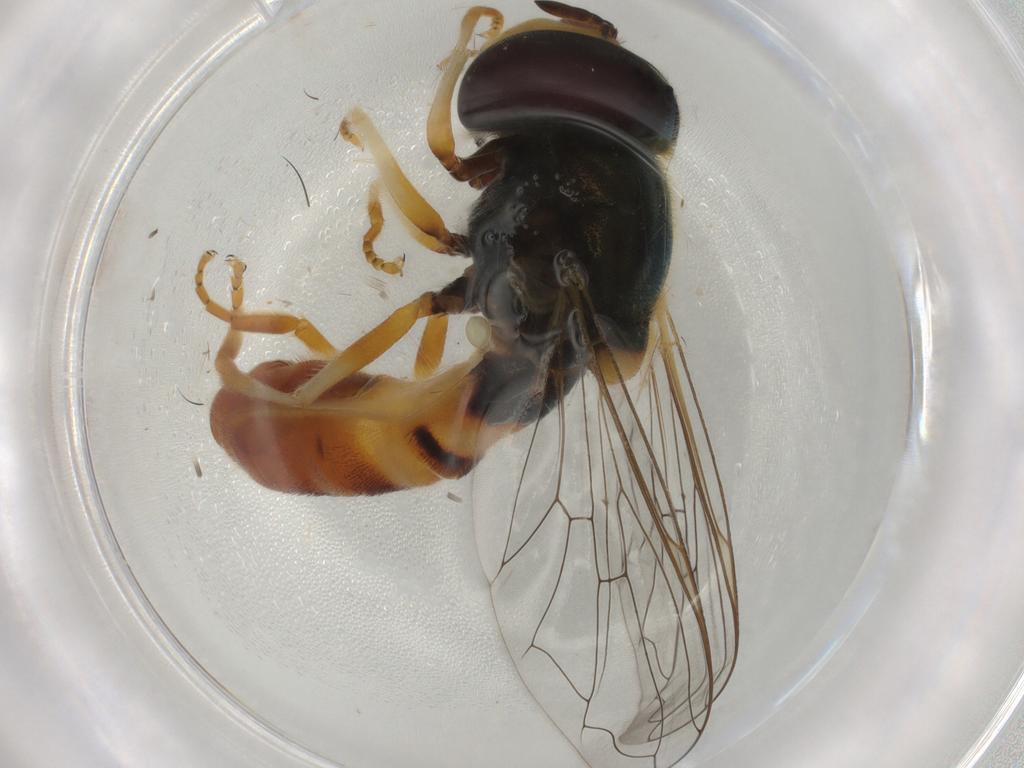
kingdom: Animalia
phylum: Arthropoda
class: Insecta
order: Diptera
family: Syrphidae
